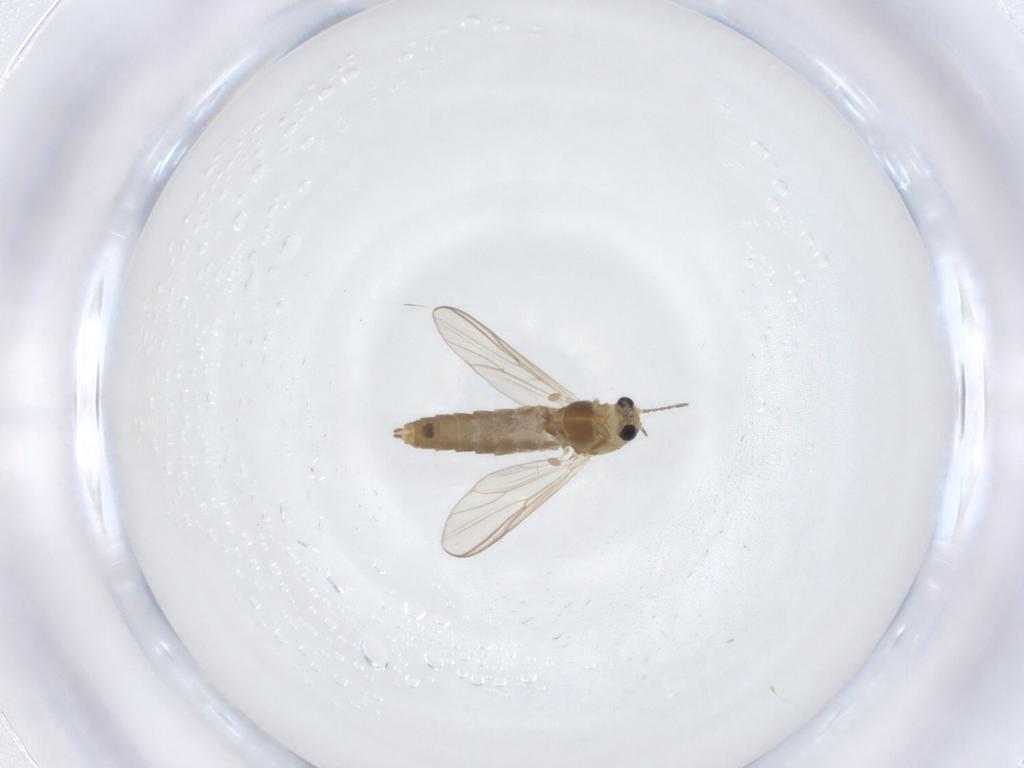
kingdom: Animalia
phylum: Arthropoda
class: Insecta
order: Diptera
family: Chironomidae
